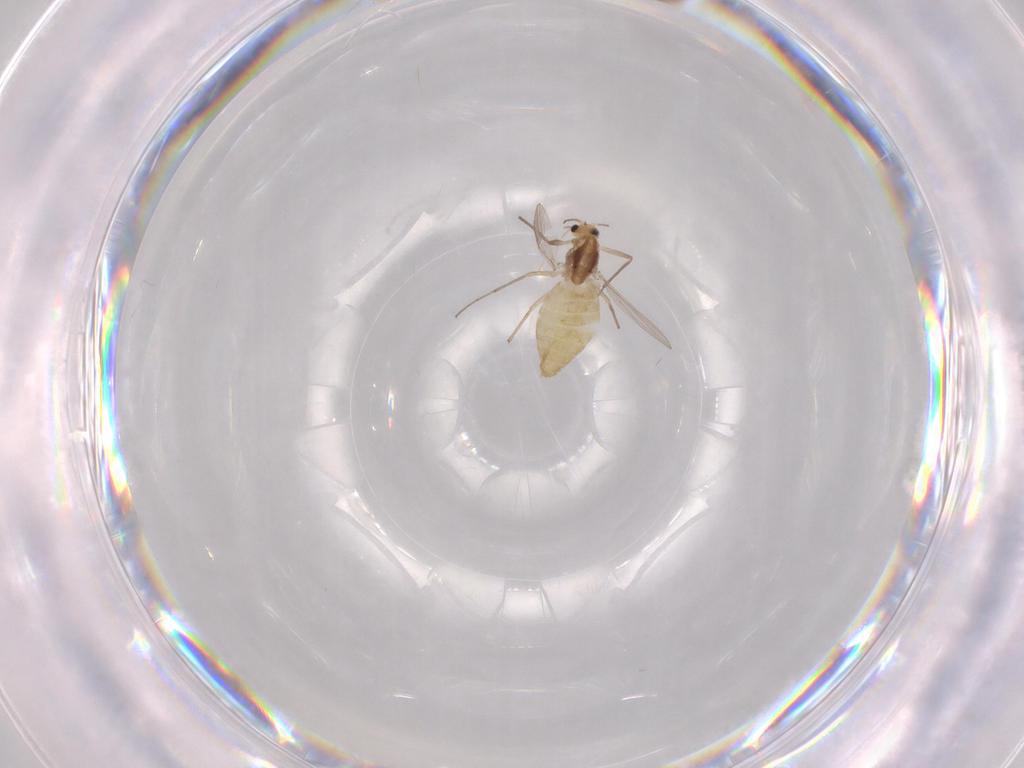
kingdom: Animalia
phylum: Arthropoda
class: Insecta
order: Diptera
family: Chironomidae
